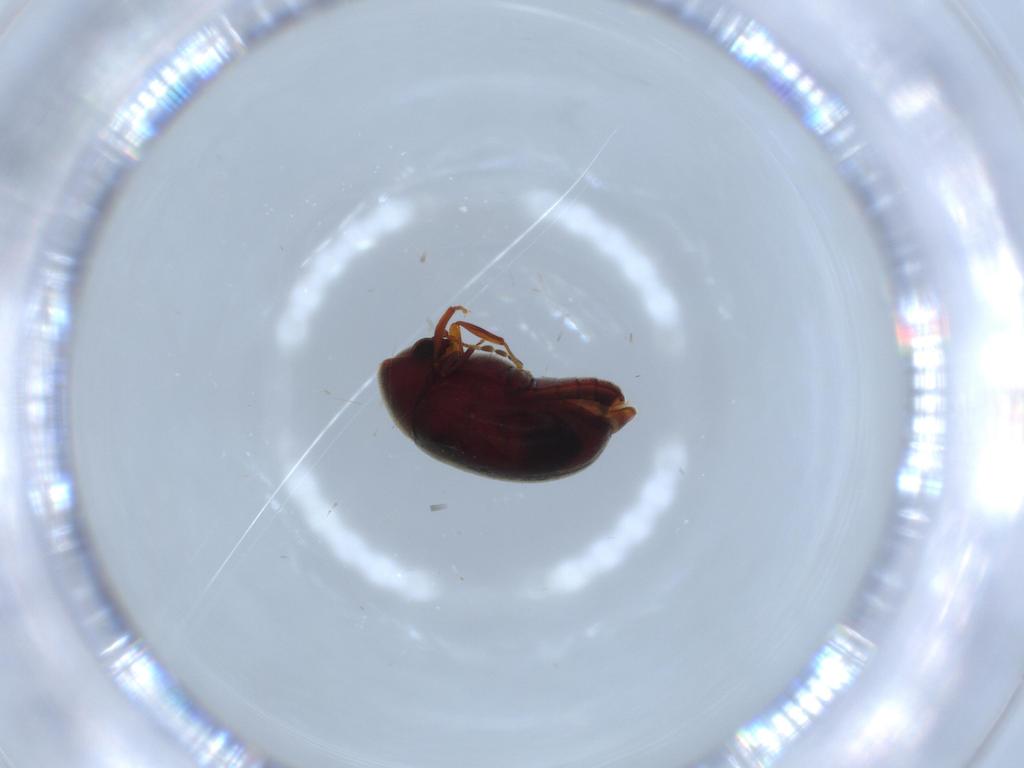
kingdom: Animalia
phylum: Arthropoda
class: Insecta
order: Coleoptera
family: Ptinidae
